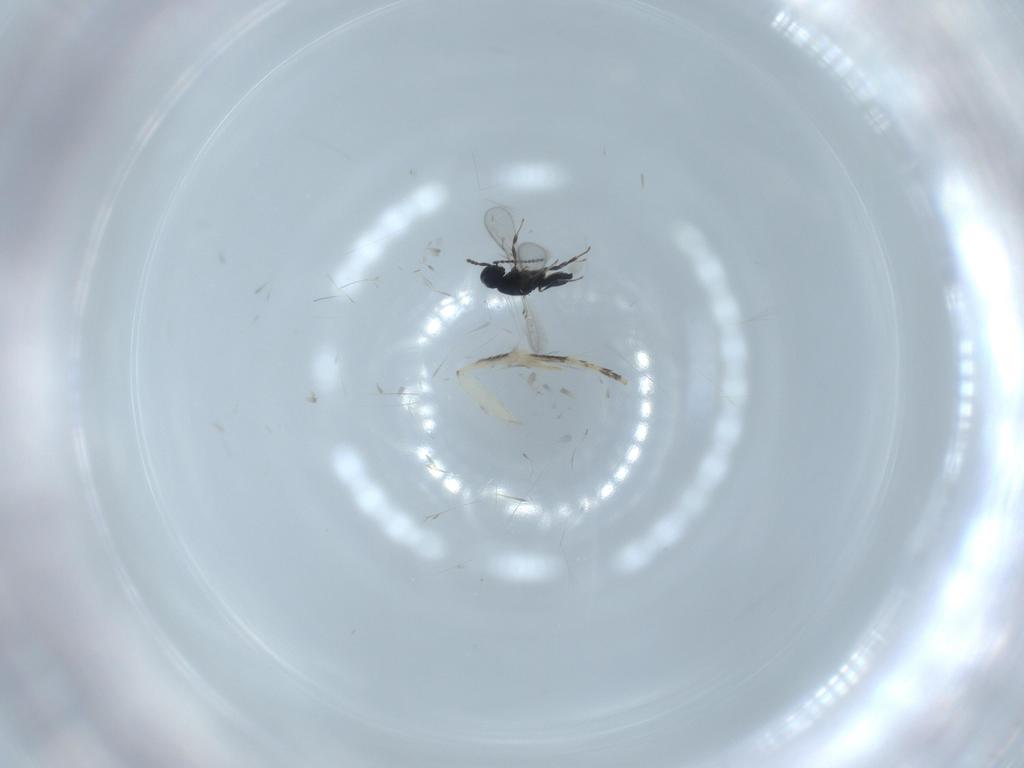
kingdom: Animalia
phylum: Arthropoda
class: Insecta
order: Hymenoptera
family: Scelionidae
